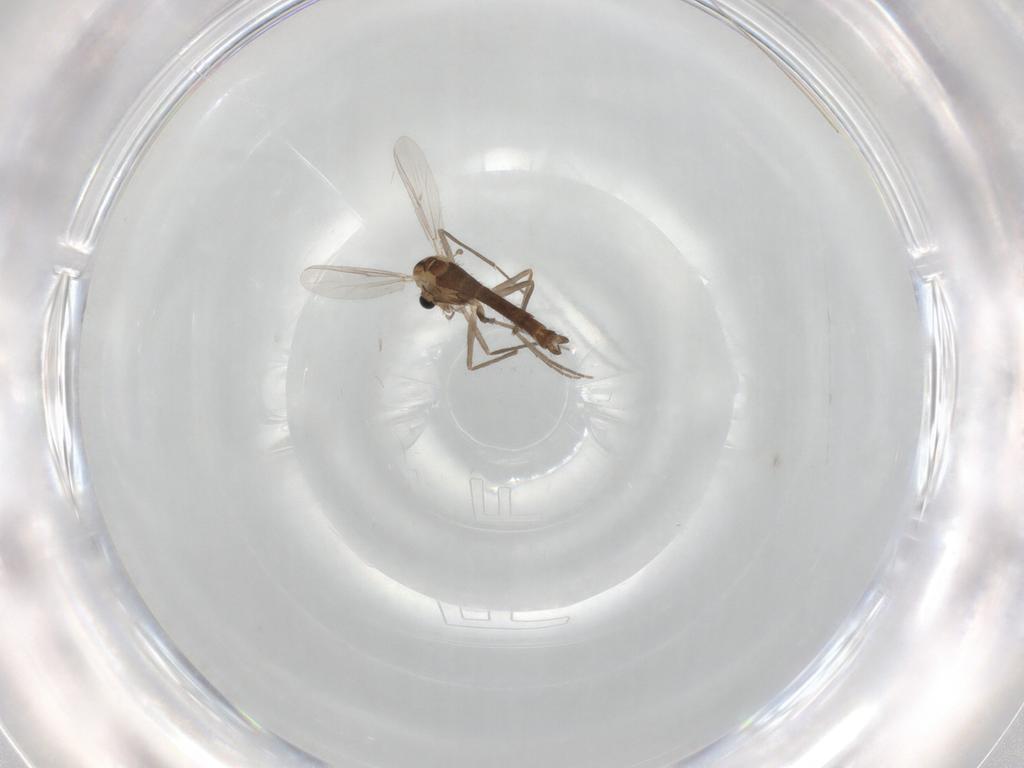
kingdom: Animalia
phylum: Arthropoda
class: Insecta
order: Diptera
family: Chironomidae
